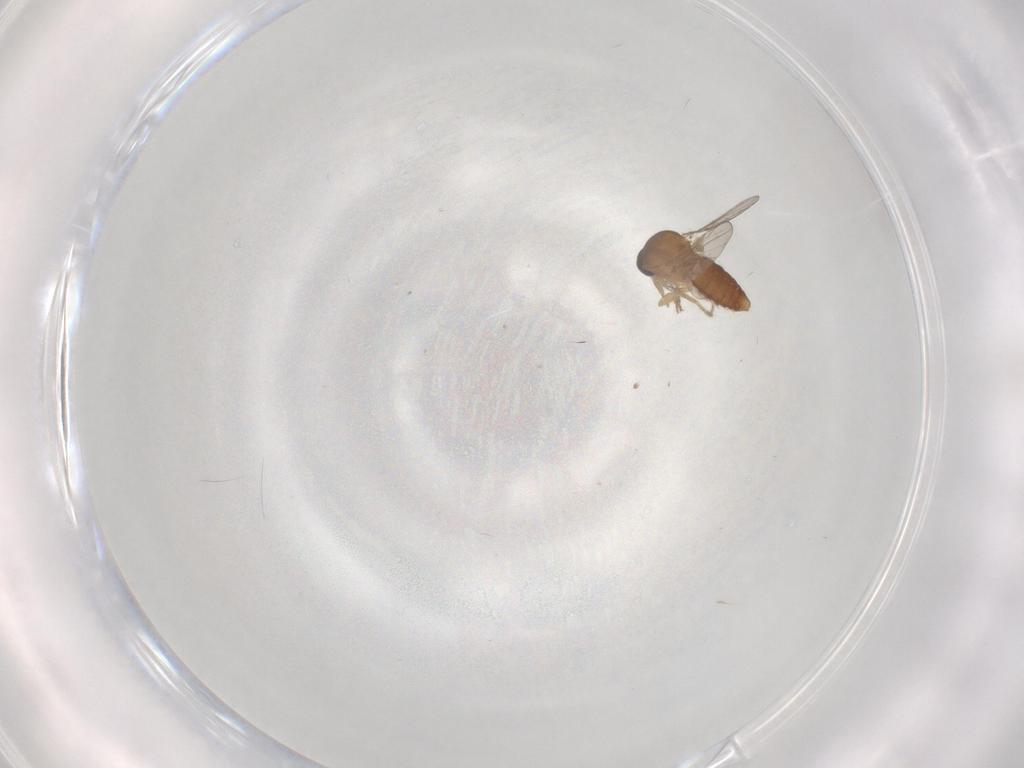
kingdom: Animalia
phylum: Arthropoda
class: Insecta
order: Diptera
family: Ceratopogonidae
